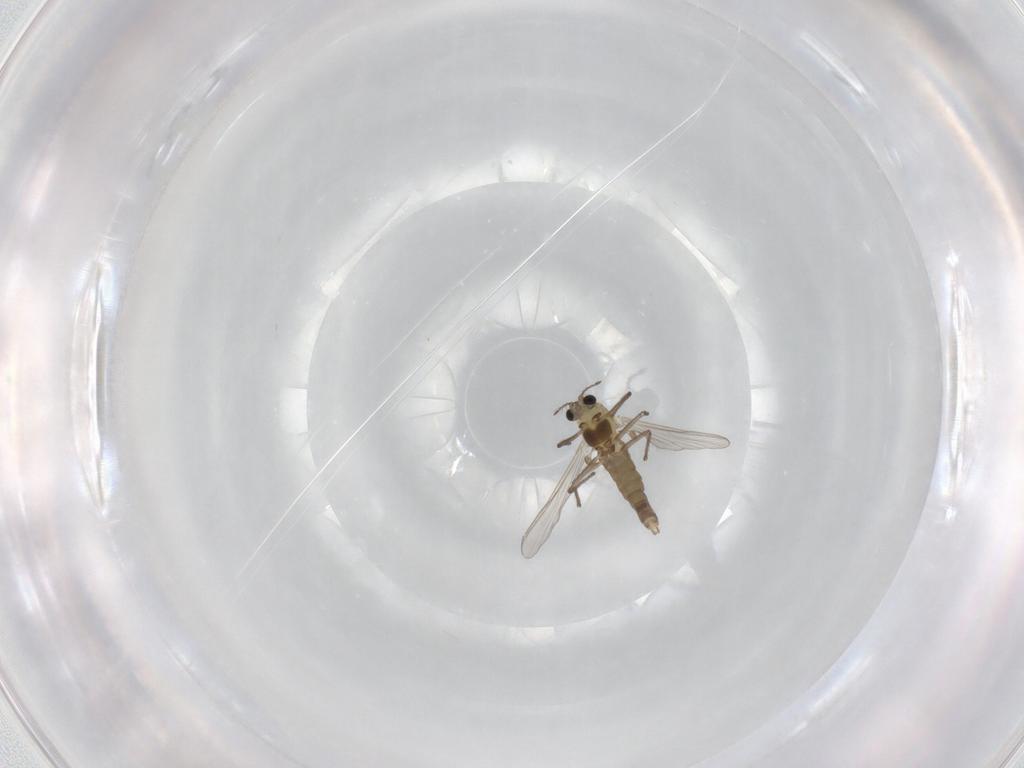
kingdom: Animalia
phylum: Arthropoda
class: Insecta
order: Diptera
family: Chironomidae
